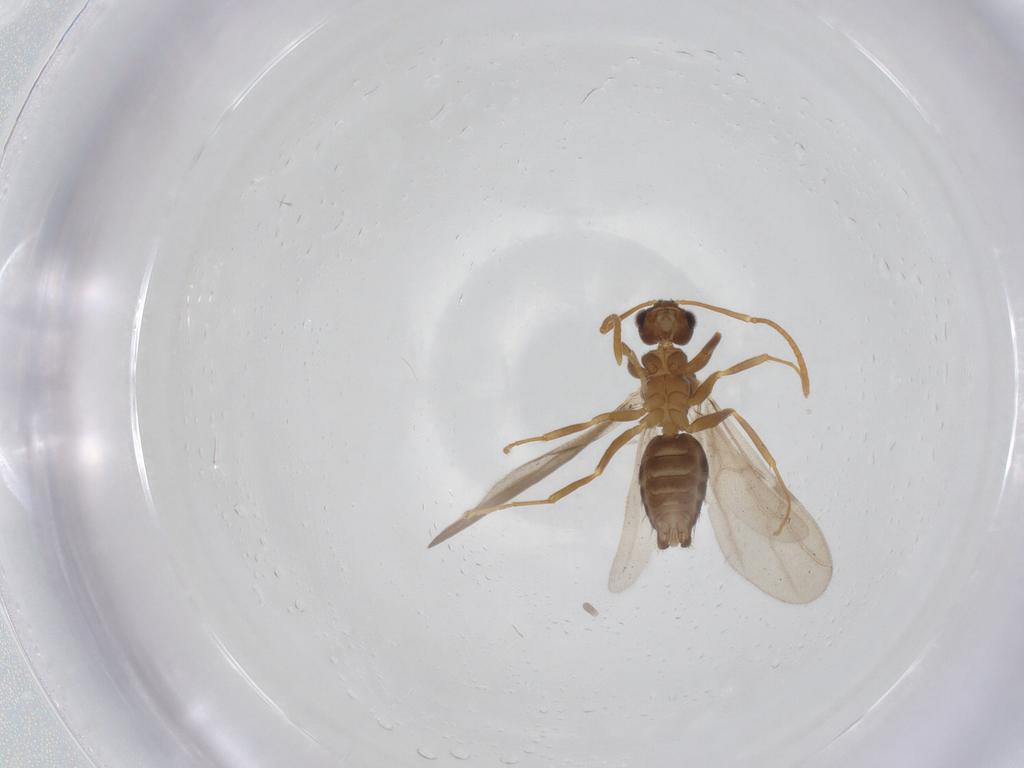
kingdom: Animalia
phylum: Arthropoda
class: Insecta
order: Hymenoptera
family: Formicidae
